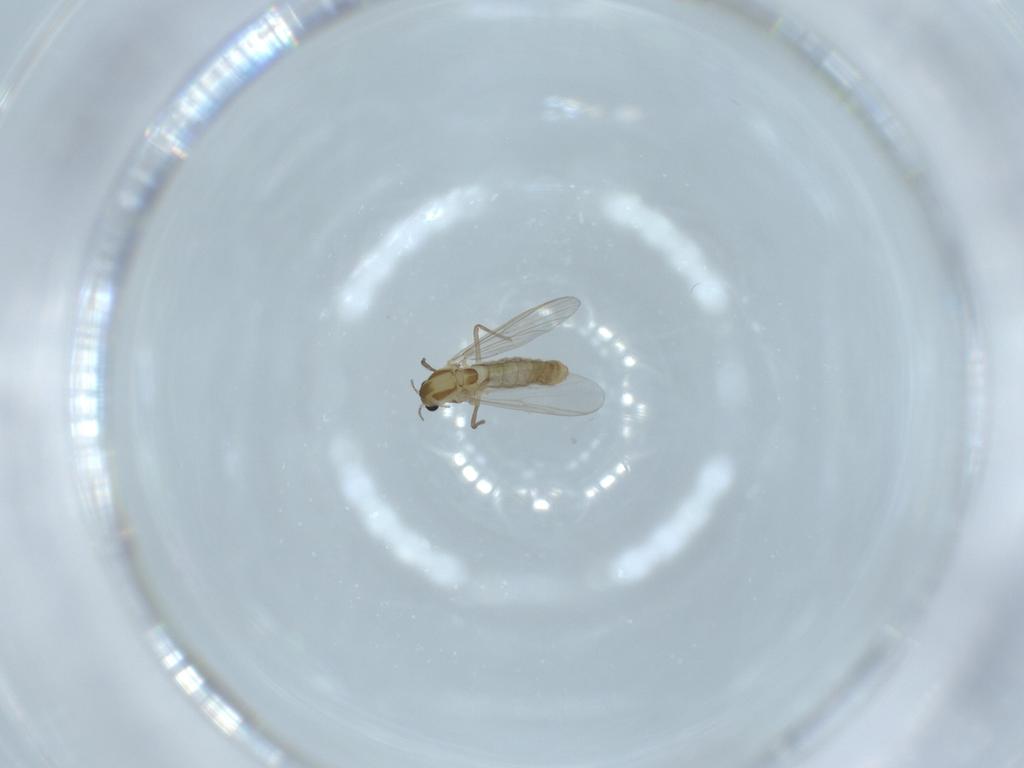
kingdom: Animalia
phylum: Arthropoda
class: Insecta
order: Diptera
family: Chironomidae
